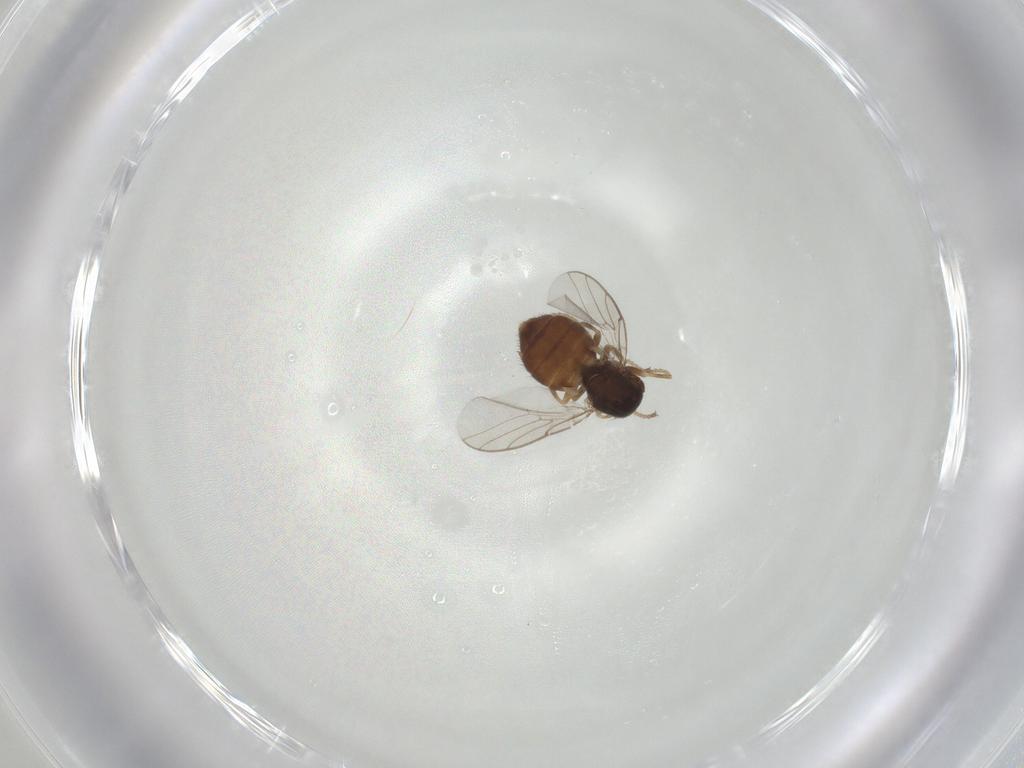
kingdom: Animalia
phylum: Arthropoda
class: Insecta
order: Diptera
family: Chloropidae
